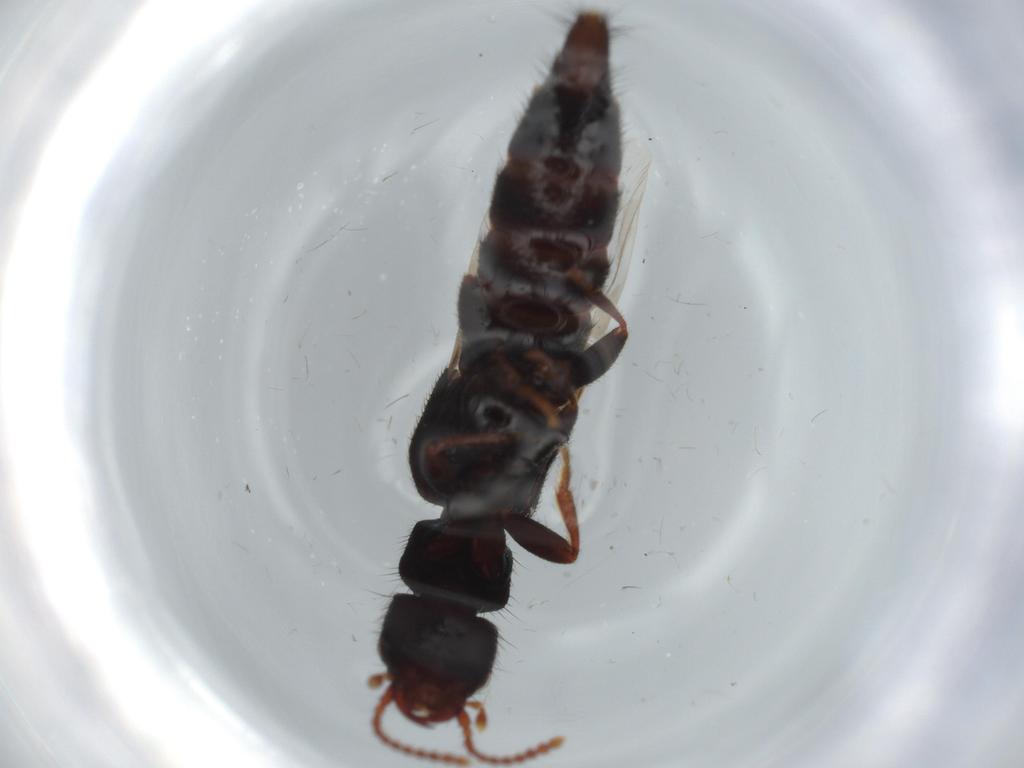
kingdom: Animalia
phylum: Arthropoda
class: Insecta
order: Coleoptera
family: Staphylinidae
